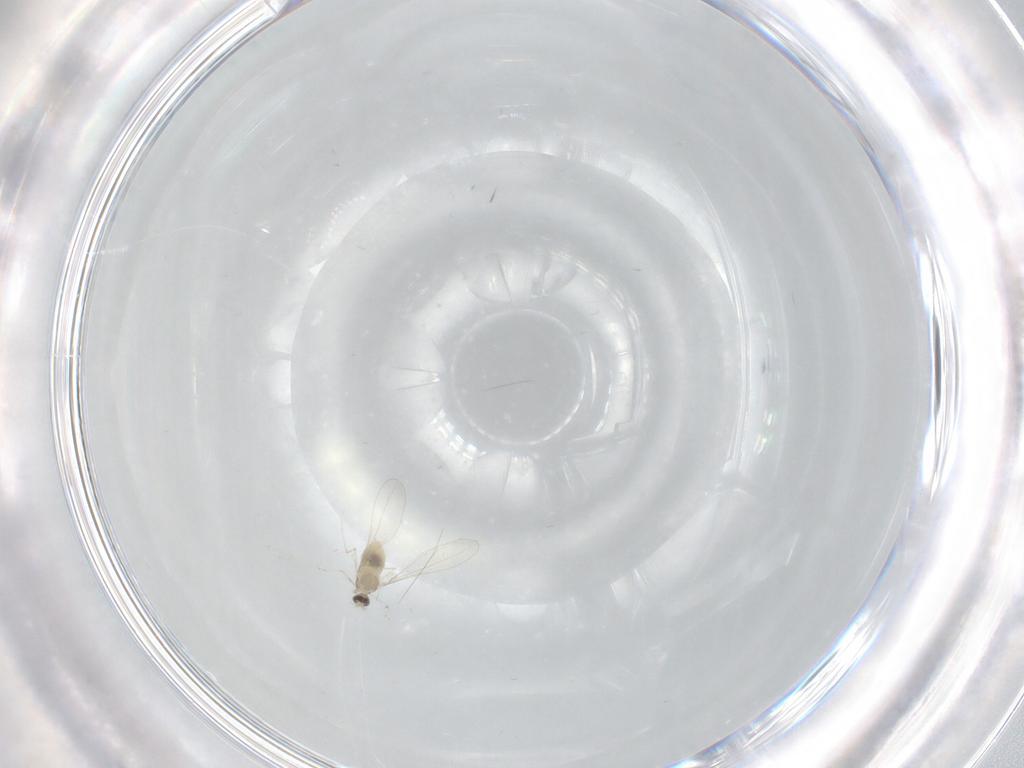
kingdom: Animalia
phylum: Arthropoda
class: Insecta
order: Diptera
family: Cecidomyiidae
